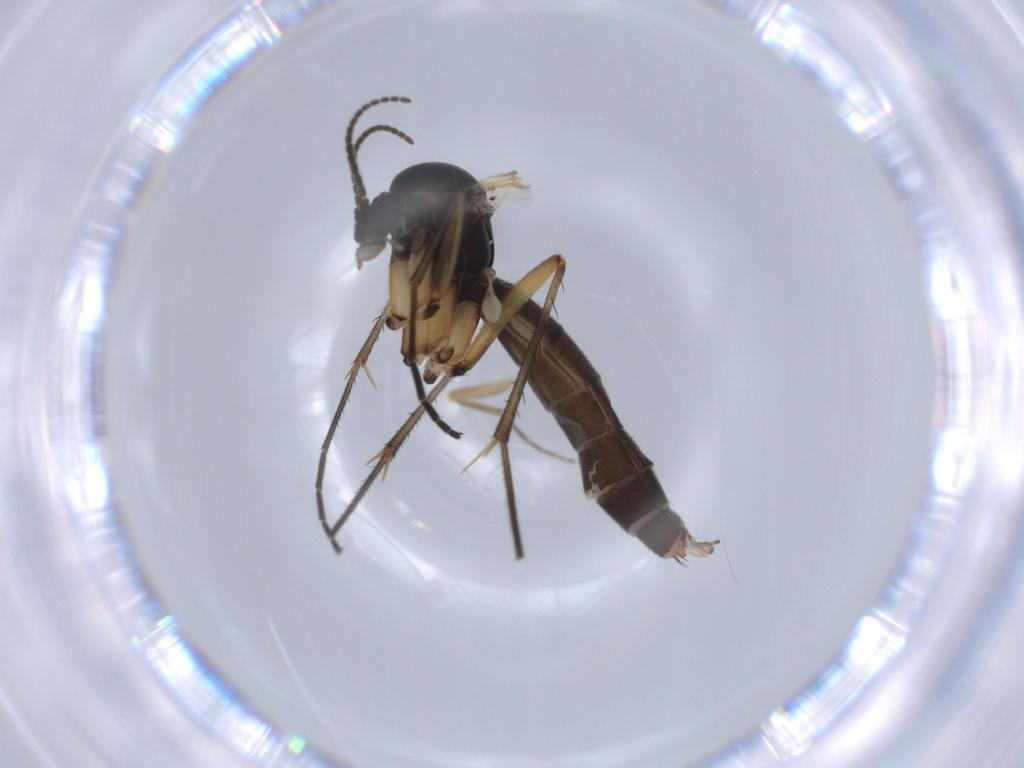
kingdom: Animalia
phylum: Arthropoda
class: Insecta
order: Diptera
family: Cecidomyiidae
